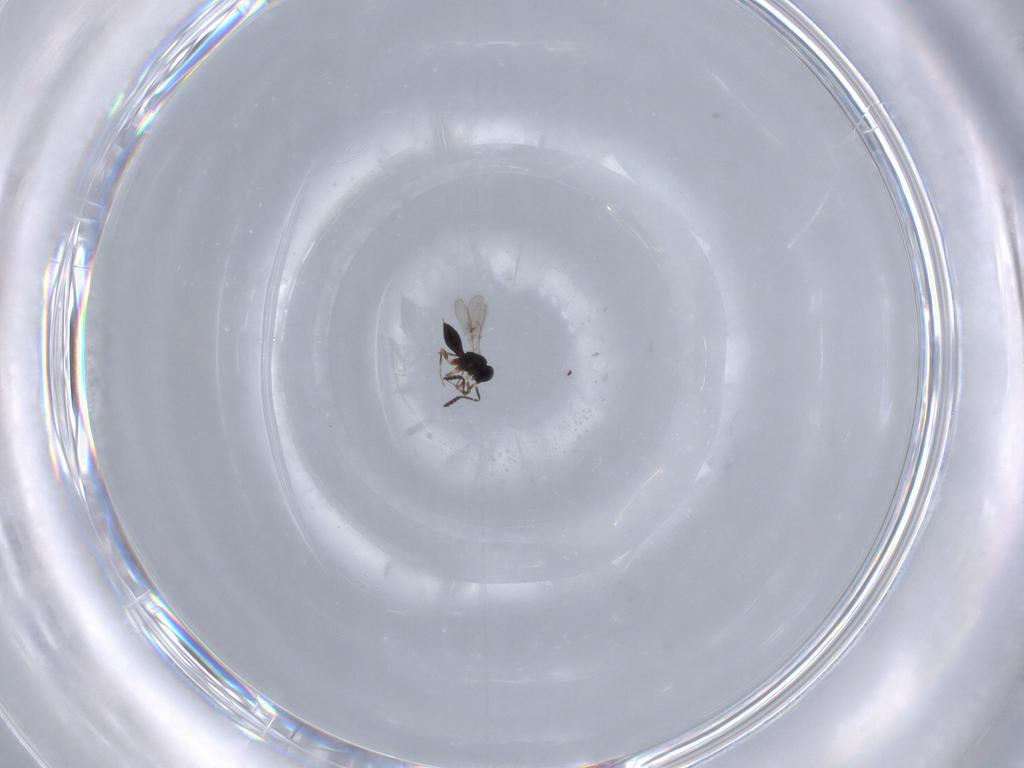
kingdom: Animalia
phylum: Arthropoda
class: Insecta
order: Hymenoptera
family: Scelionidae
